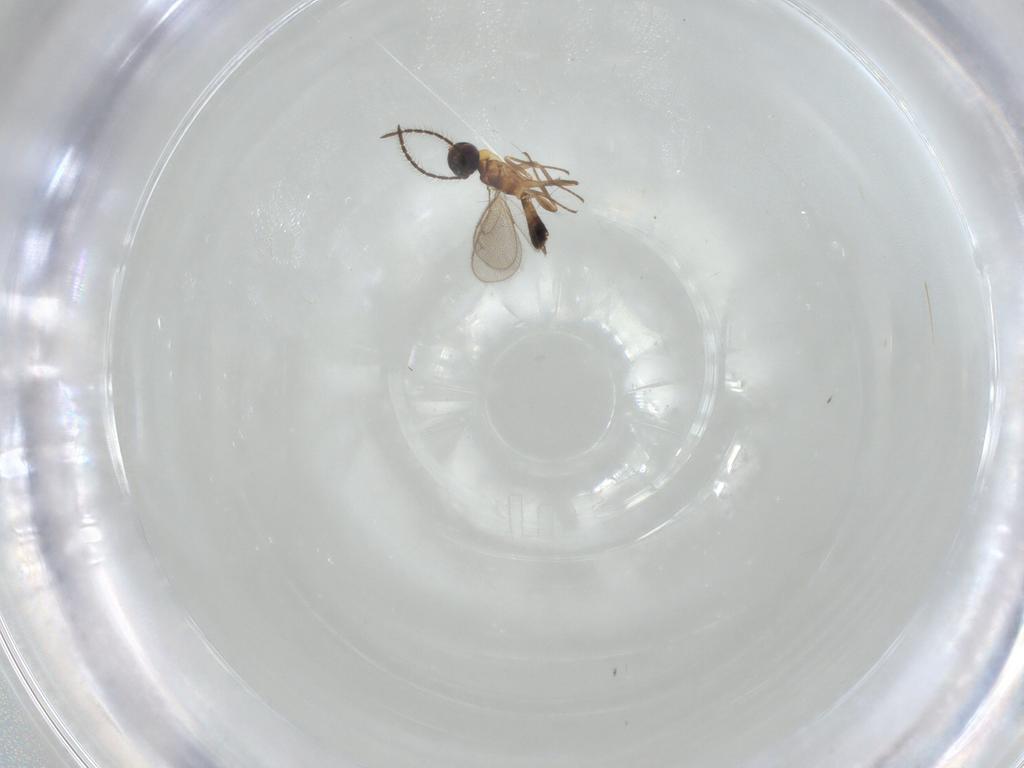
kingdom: Animalia
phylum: Arthropoda
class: Insecta
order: Hymenoptera
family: Eupelmidae
